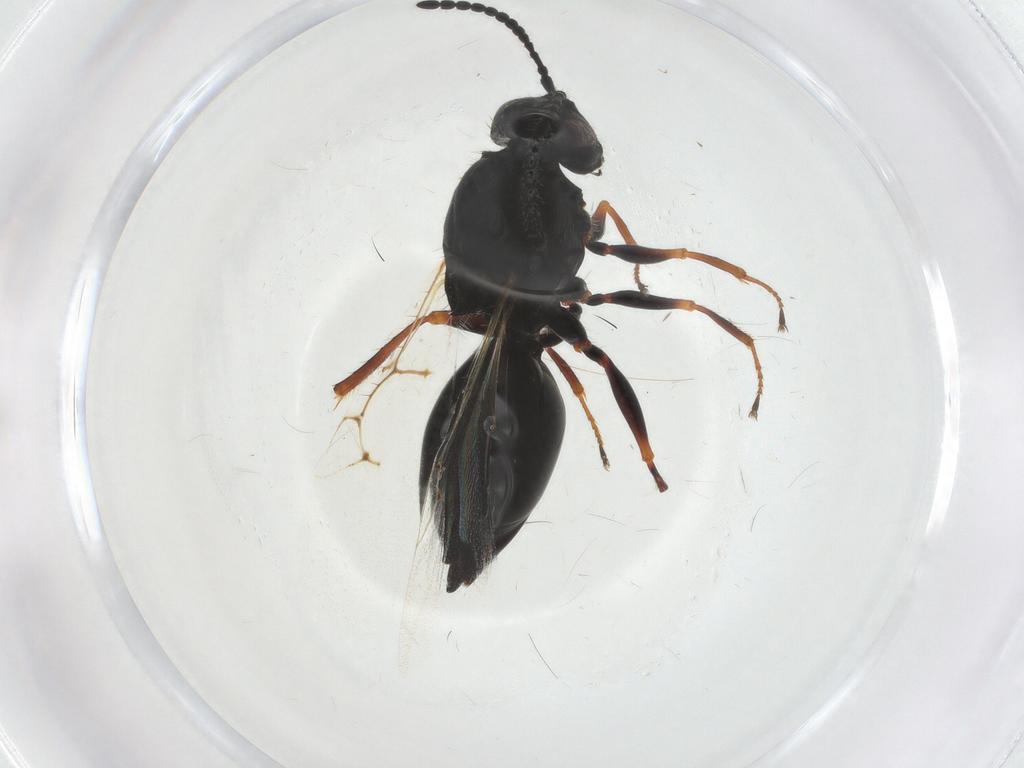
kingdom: Animalia
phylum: Arthropoda
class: Insecta
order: Hymenoptera
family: Figitidae
